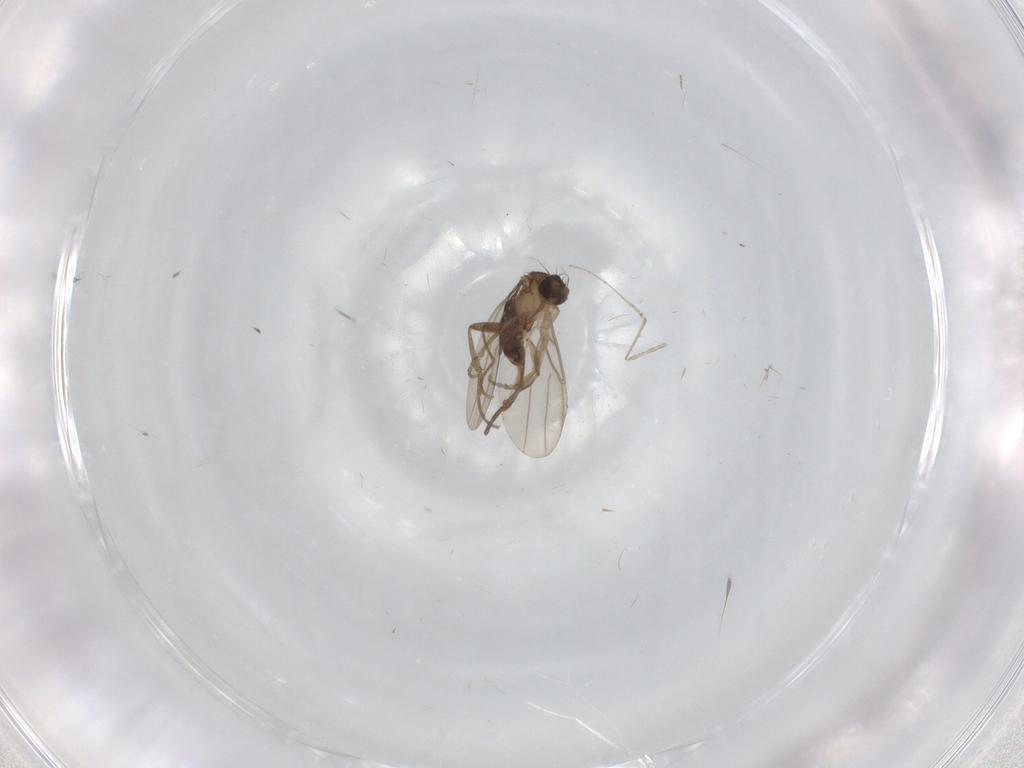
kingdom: Animalia
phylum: Arthropoda
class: Insecta
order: Diptera
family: Ceratopogonidae
